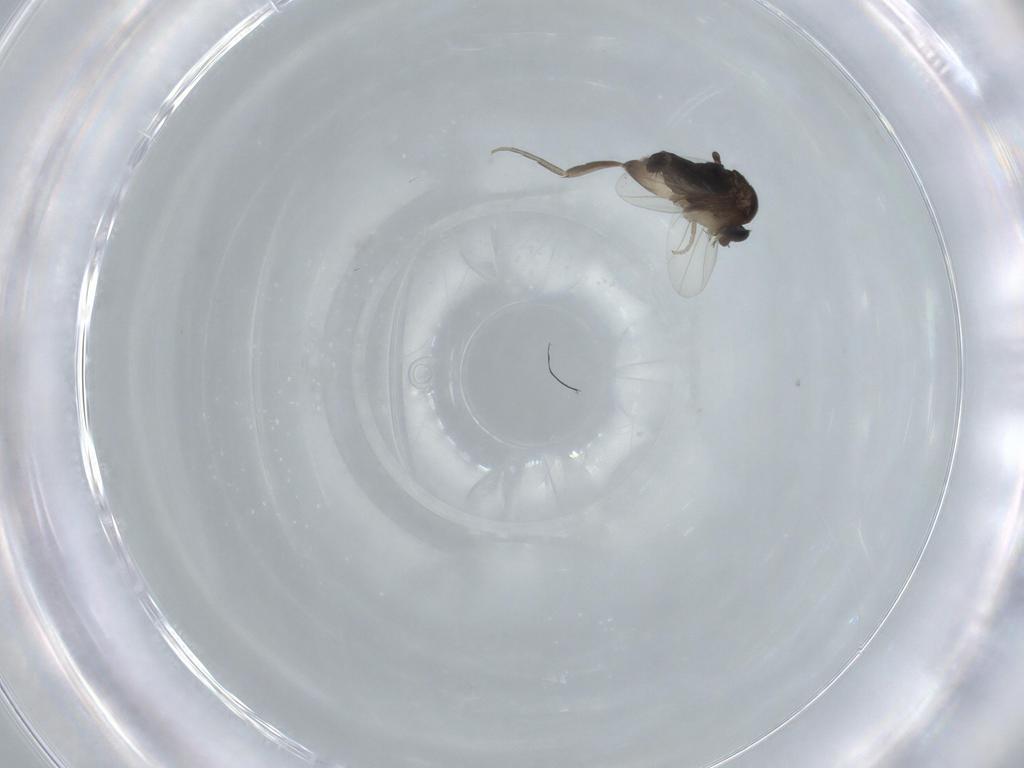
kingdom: Animalia
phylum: Arthropoda
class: Insecta
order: Diptera
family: Phoridae
